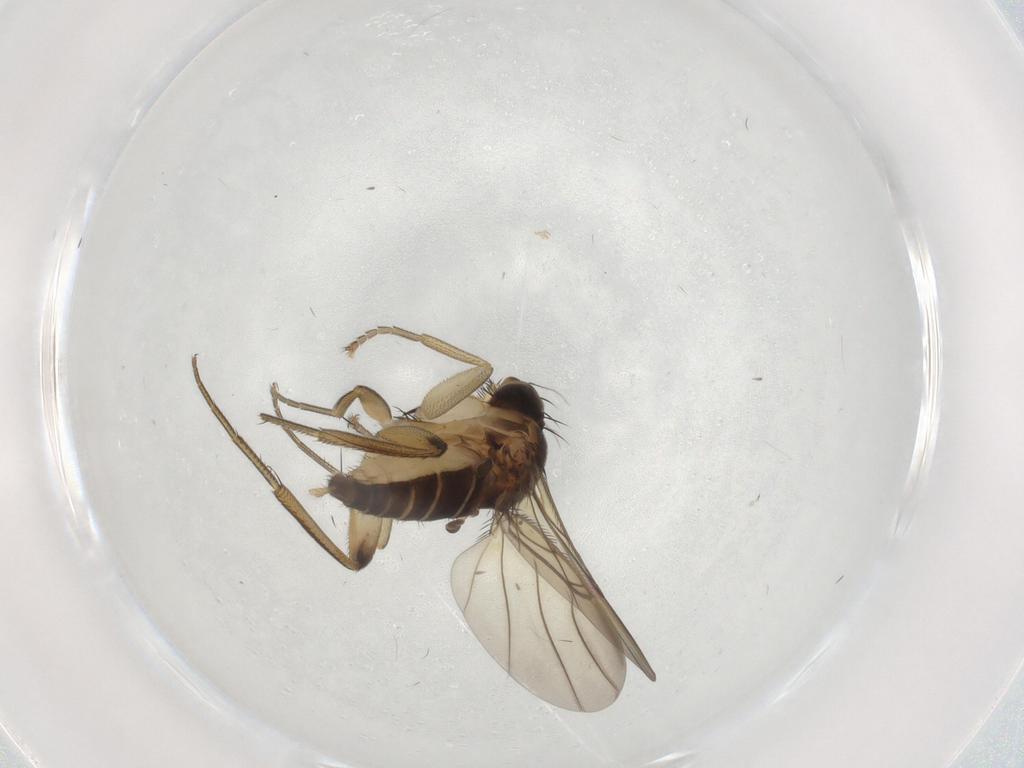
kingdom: Animalia
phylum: Arthropoda
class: Insecta
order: Diptera
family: Phoridae
